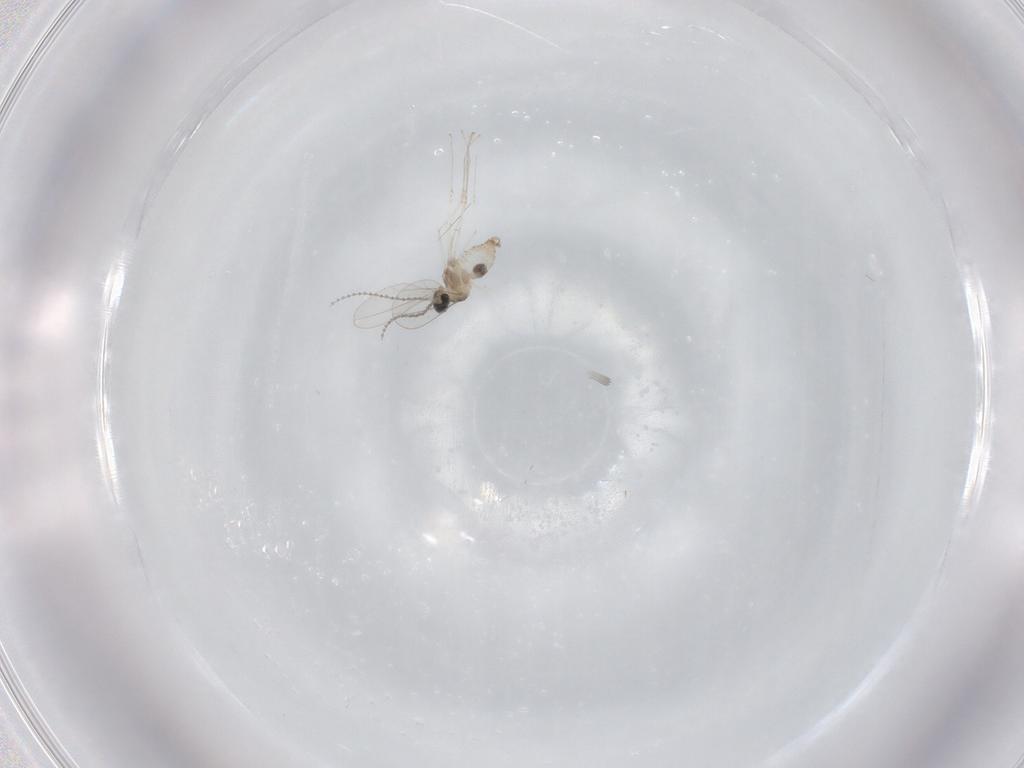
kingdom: Animalia
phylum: Arthropoda
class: Insecta
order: Diptera
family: Cecidomyiidae
